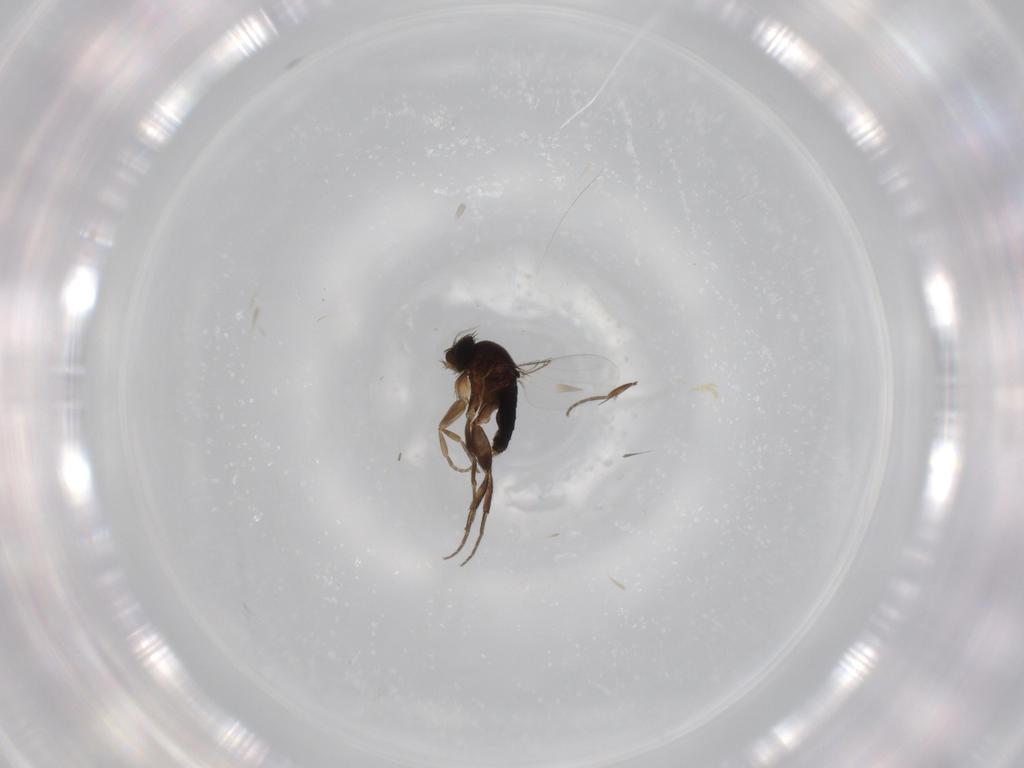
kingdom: Animalia
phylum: Arthropoda
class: Insecta
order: Diptera
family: Phoridae
